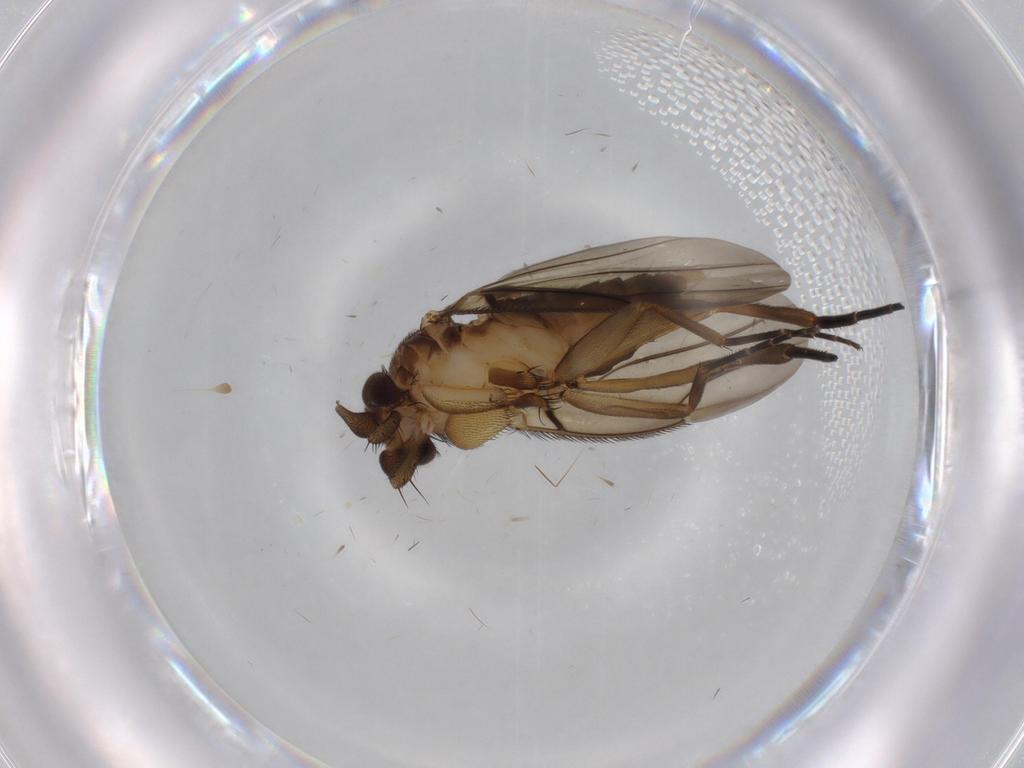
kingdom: Animalia
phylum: Arthropoda
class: Insecta
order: Diptera
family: Phoridae
